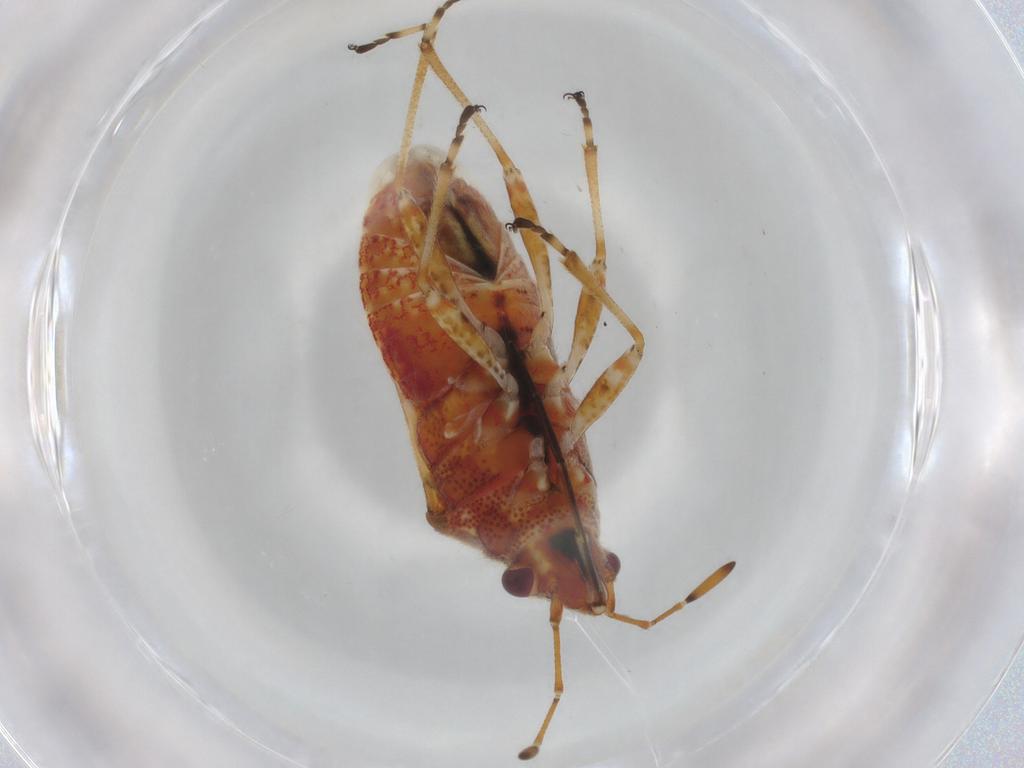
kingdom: Animalia
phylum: Arthropoda
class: Insecta
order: Hemiptera
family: Lygaeidae
